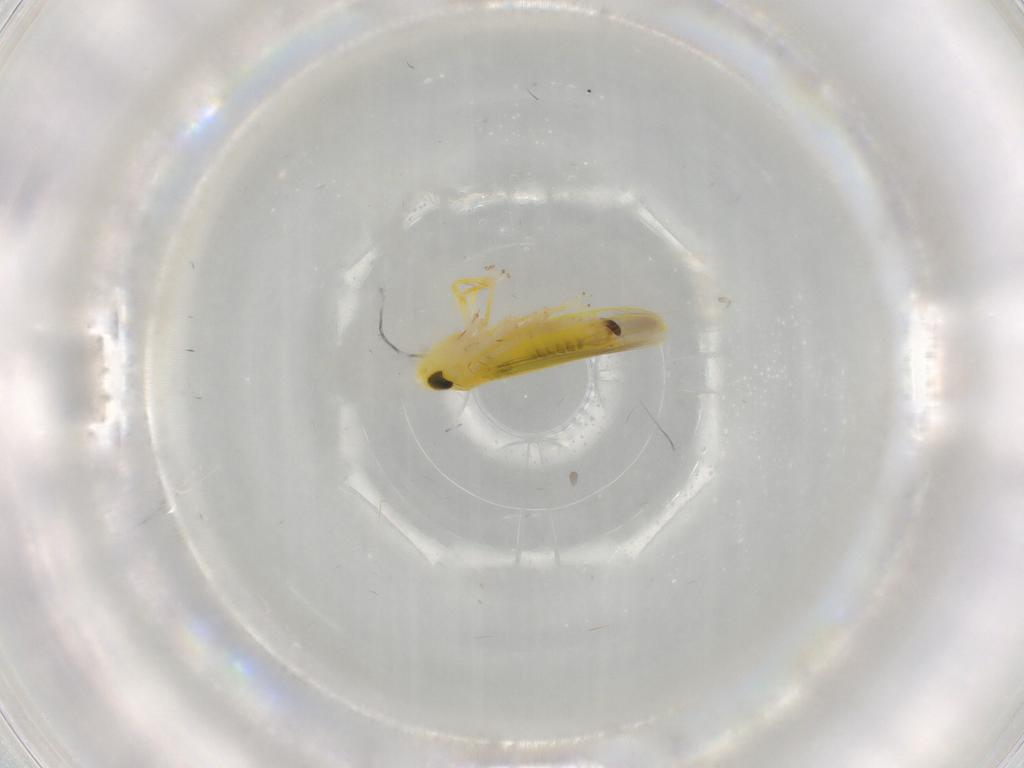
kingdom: Animalia
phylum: Arthropoda
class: Insecta
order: Hemiptera
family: Cicadellidae
